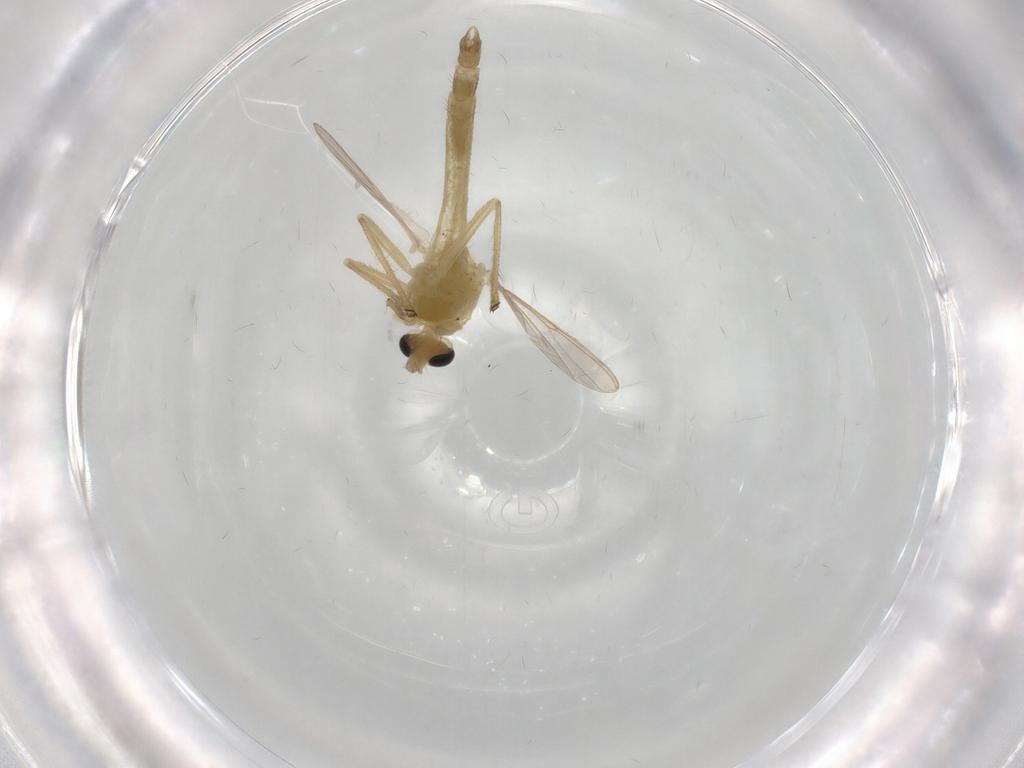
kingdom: Animalia
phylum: Arthropoda
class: Insecta
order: Diptera
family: Chironomidae
